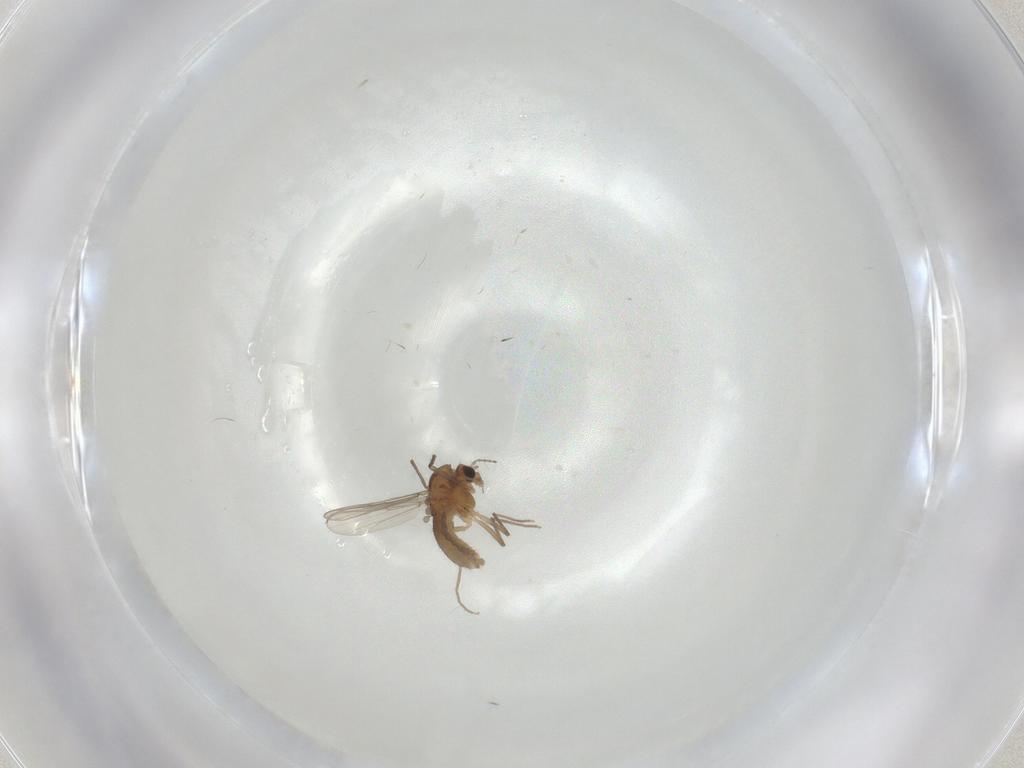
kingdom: Animalia
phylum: Arthropoda
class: Insecta
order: Diptera
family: Chironomidae
